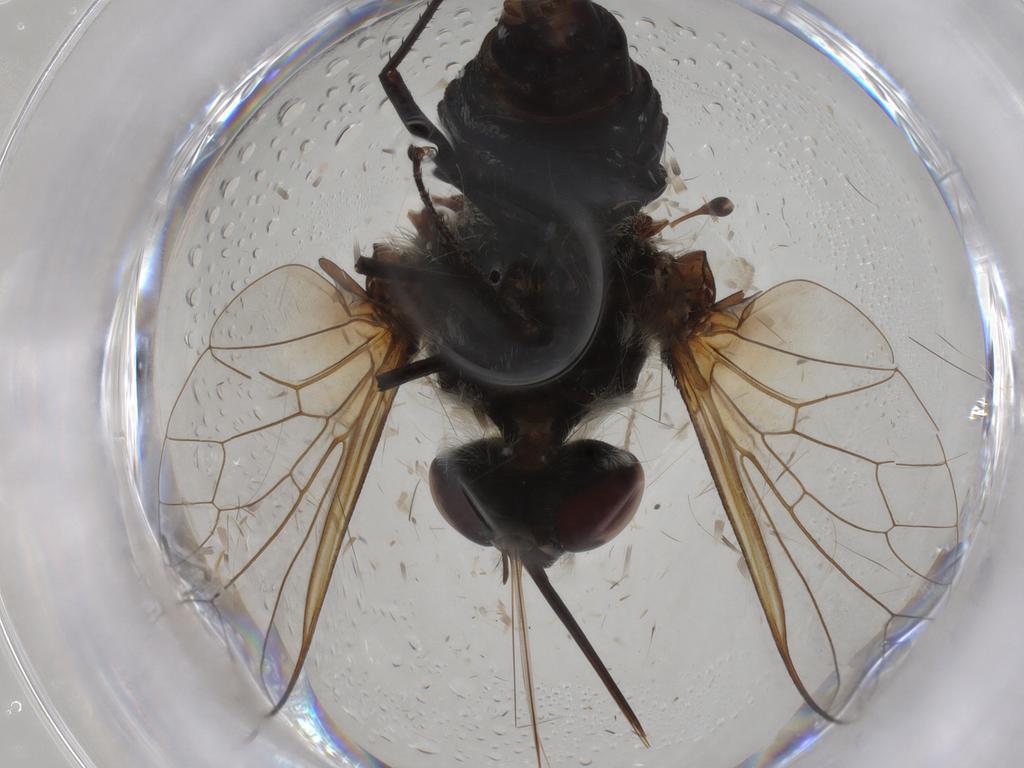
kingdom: Animalia
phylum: Arthropoda
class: Insecta
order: Diptera
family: Stratiomyidae
